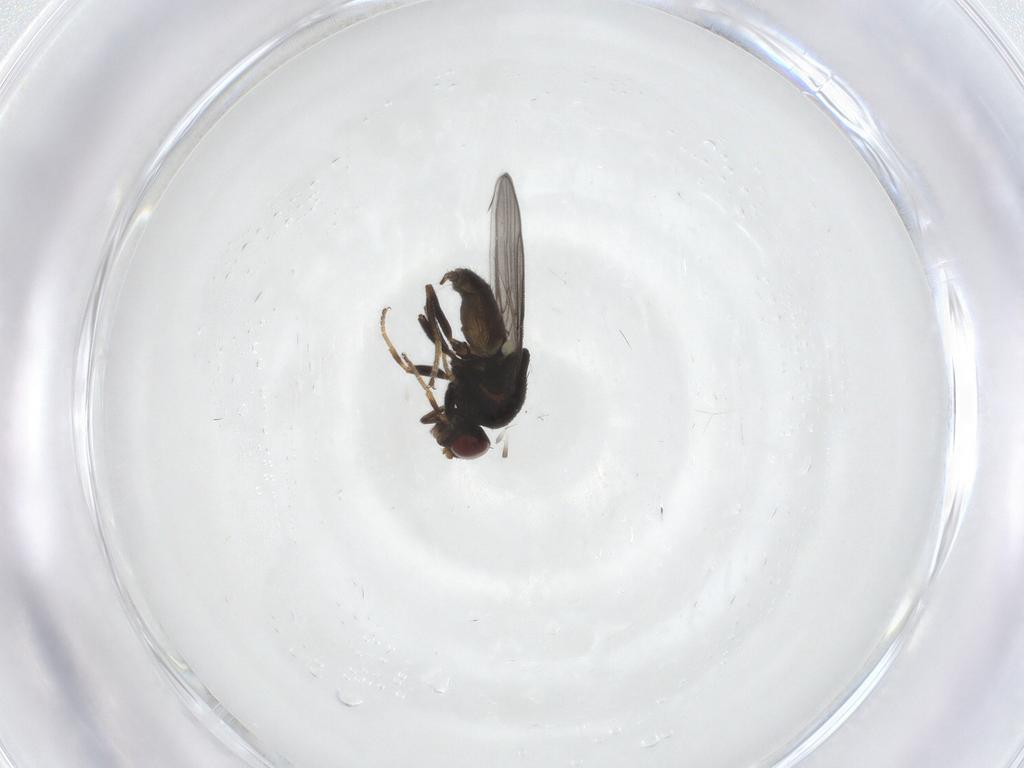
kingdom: Animalia
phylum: Arthropoda
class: Insecta
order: Diptera
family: Chloropidae
